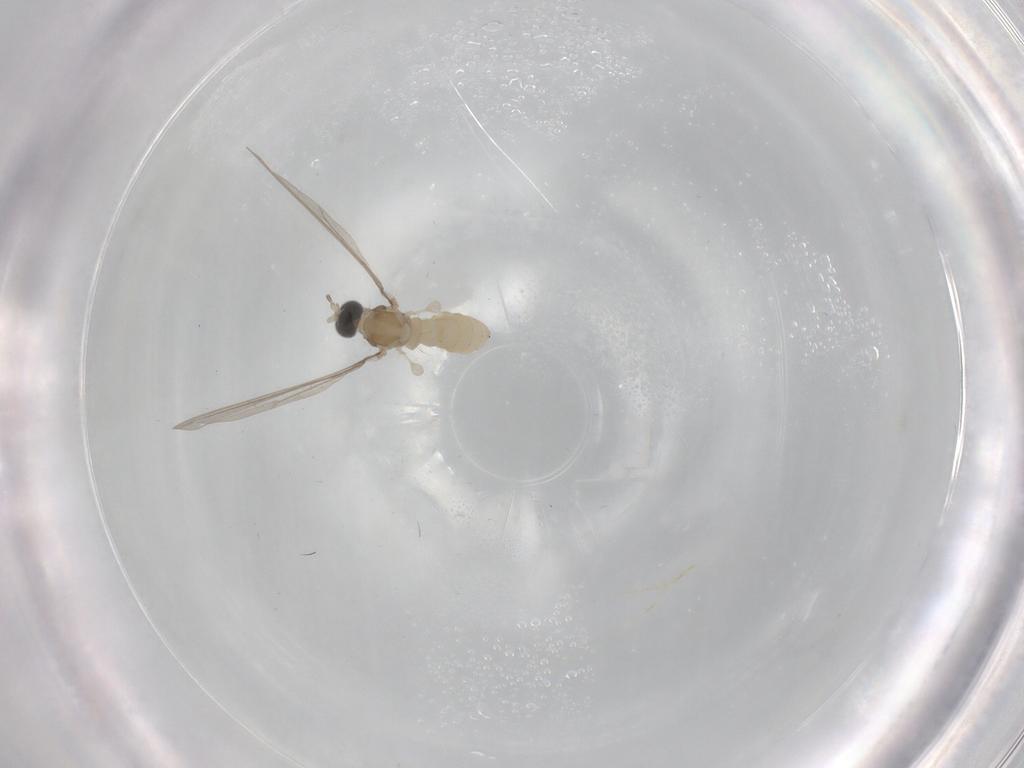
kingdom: Animalia
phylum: Arthropoda
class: Insecta
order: Diptera
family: Cecidomyiidae
